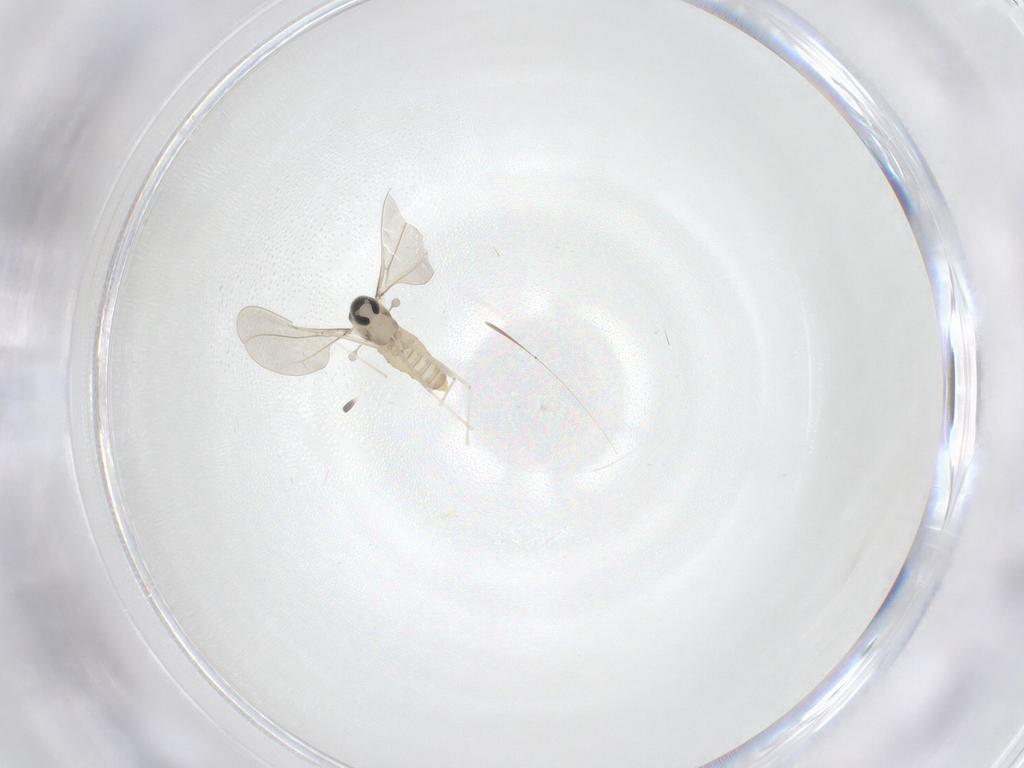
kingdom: Animalia
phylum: Arthropoda
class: Insecta
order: Diptera
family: Cecidomyiidae
